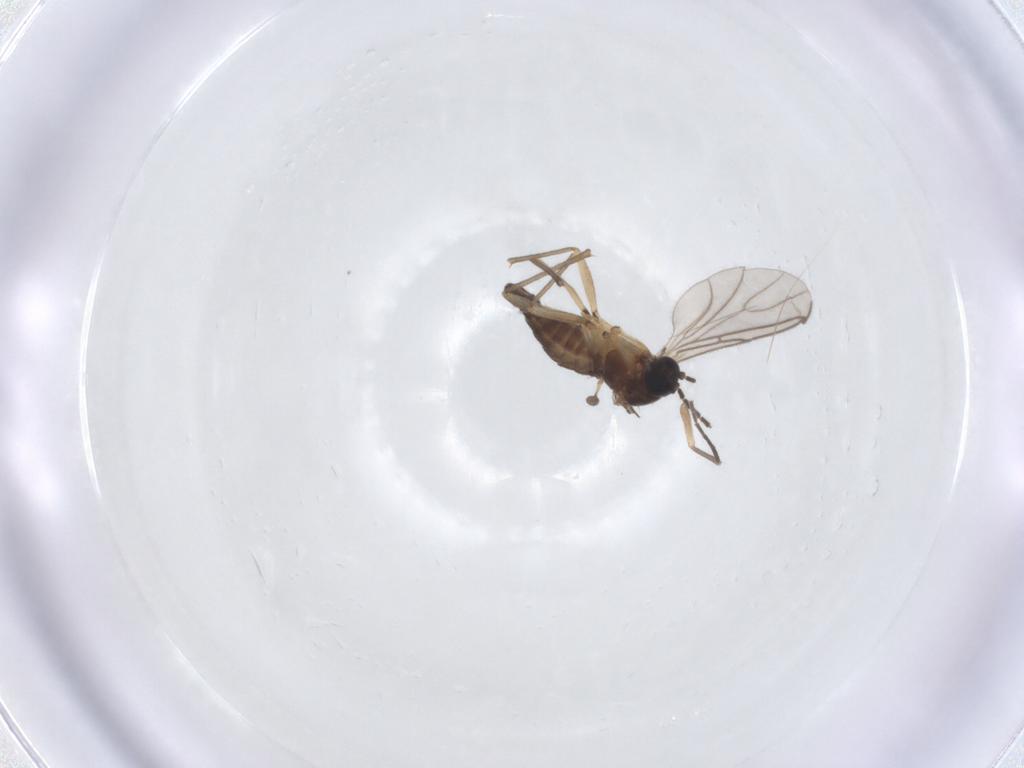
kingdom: Animalia
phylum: Arthropoda
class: Insecta
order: Diptera
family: Sciaridae
